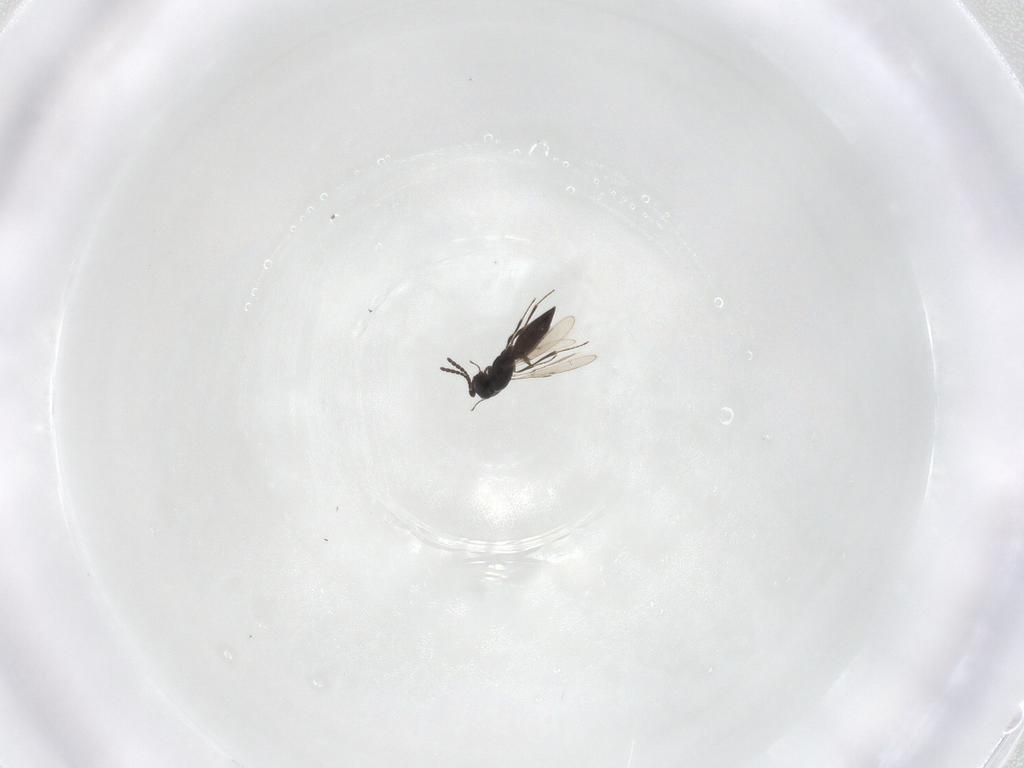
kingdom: Animalia
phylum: Arthropoda
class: Insecta
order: Hymenoptera
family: Scelionidae
